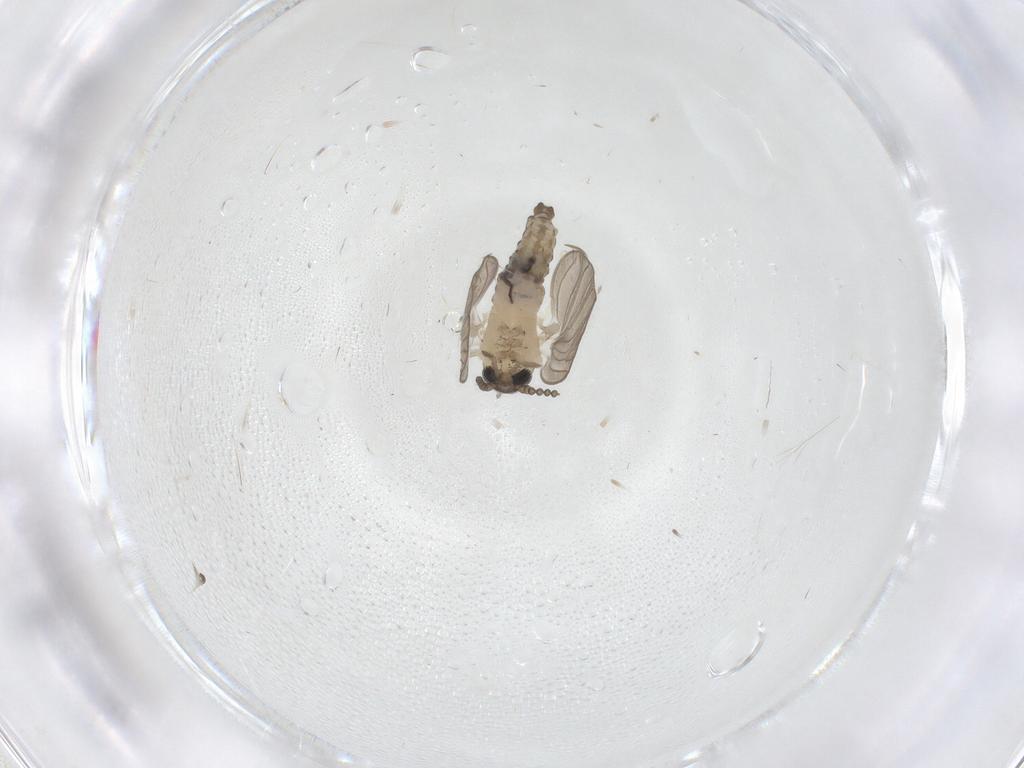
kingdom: Animalia
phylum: Arthropoda
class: Insecta
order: Diptera
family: Psychodidae
